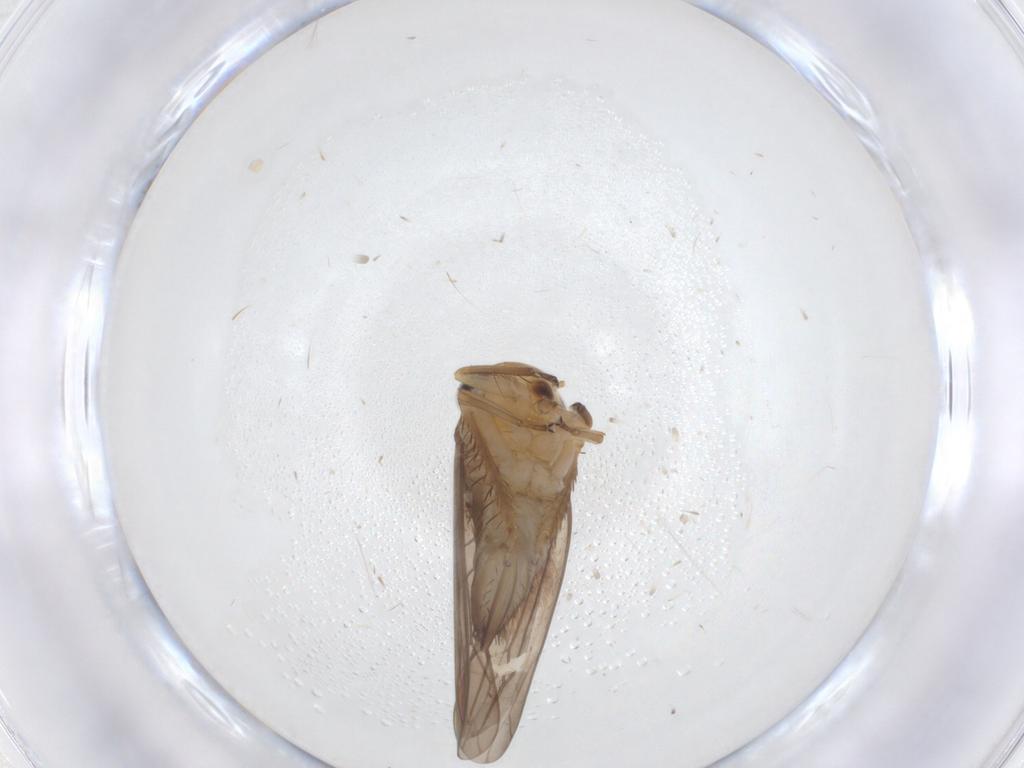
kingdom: Animalia
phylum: Arthropoda
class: Insecta
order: Hemiptera
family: Cicadellidae
